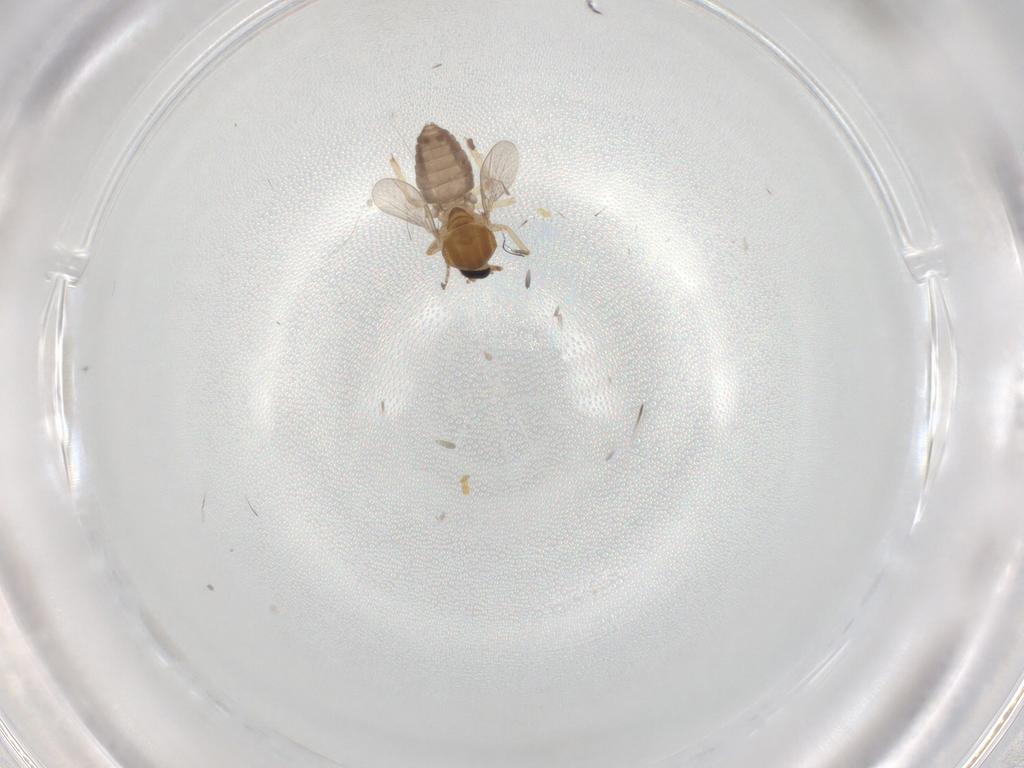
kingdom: Animalia
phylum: Arthropoda
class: Insecta
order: Diptera
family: Ceratopogonidae
